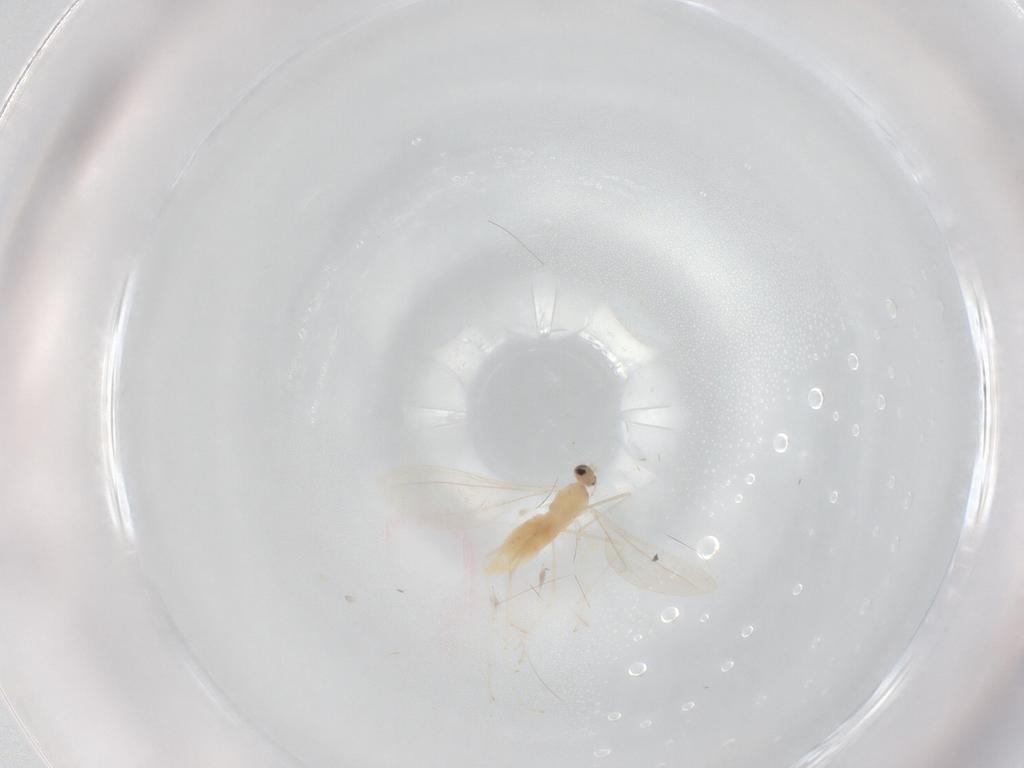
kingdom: Animalia
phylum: Arthropoda
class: Insecta
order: Diptera
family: Cecidomyiidae
